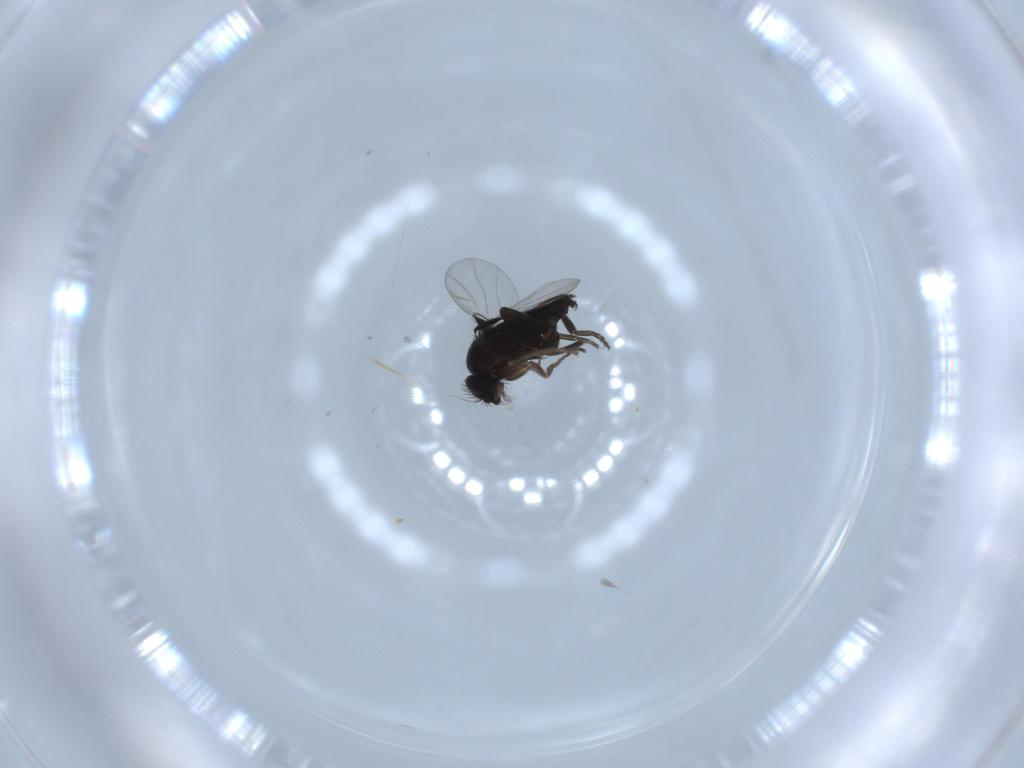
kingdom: Animalia
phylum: Arthropoda
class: Insecta
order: Diptera
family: Phoridae
